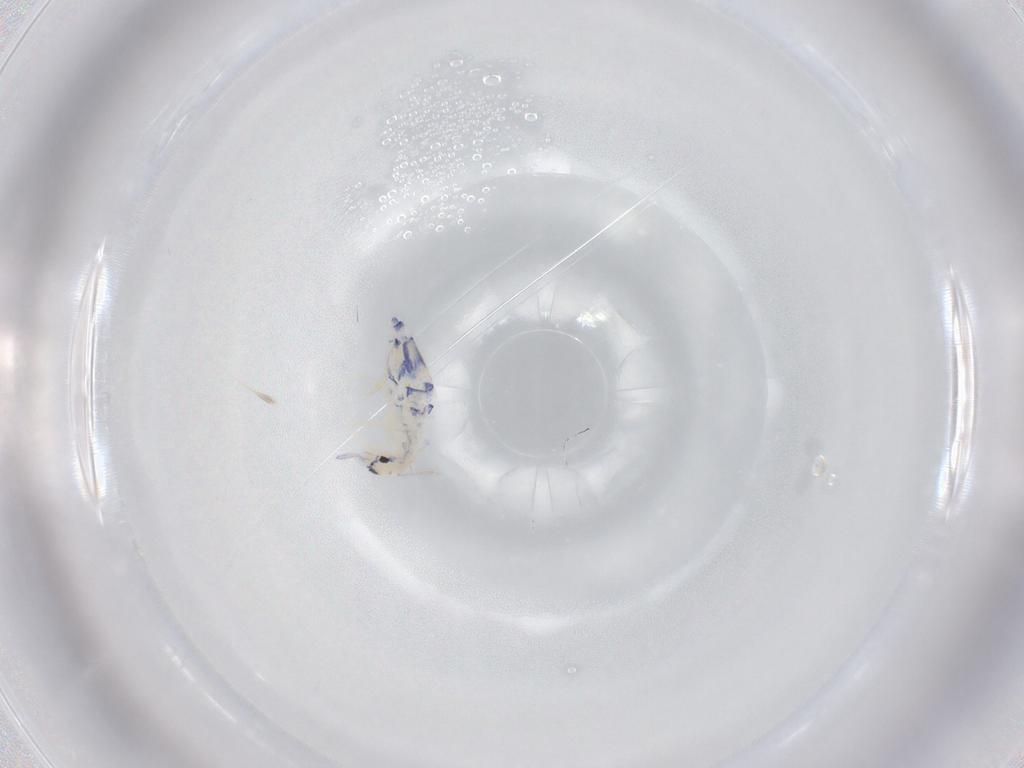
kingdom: Animalia
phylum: Arthropoda
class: Collembola
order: Entomobryomorpha
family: Entomobryidae
